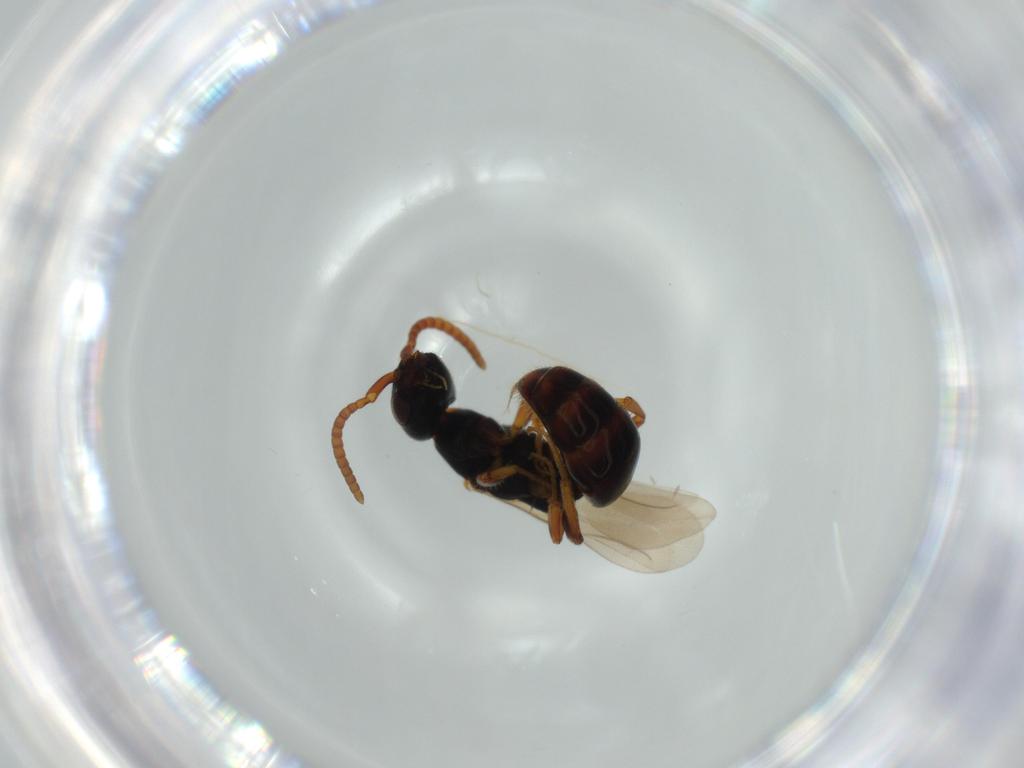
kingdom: Animalia
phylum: Arthropoda
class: Insecta
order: Hymenoptera
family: Bethylidae
